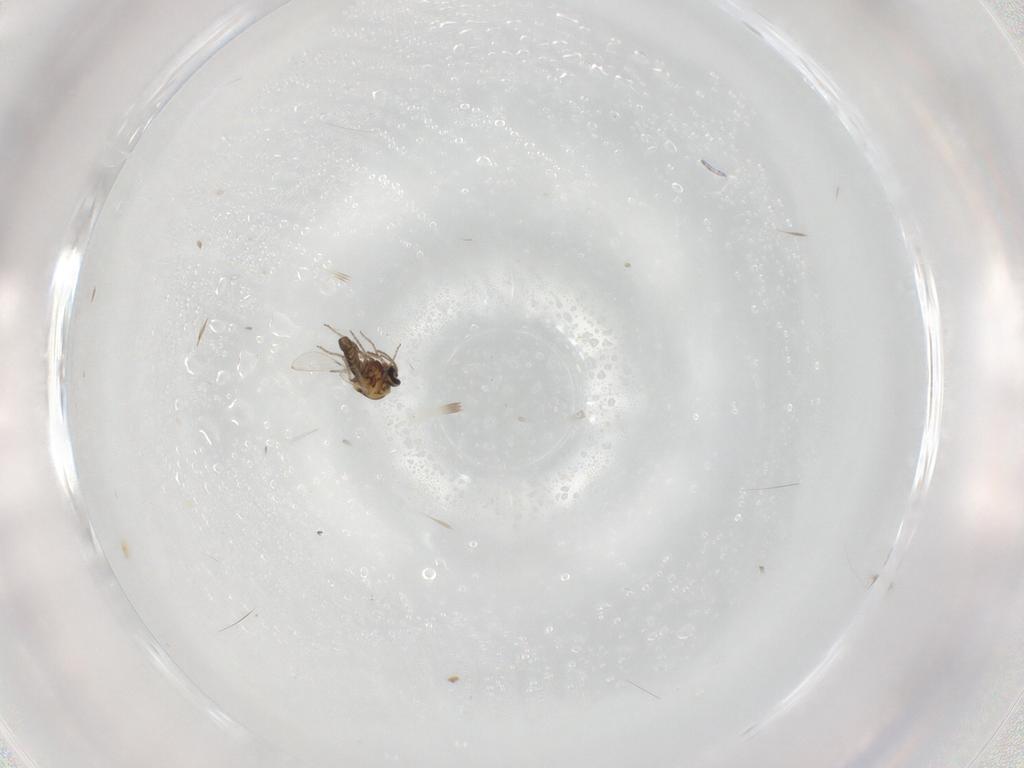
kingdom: Animalia
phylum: Arthropoda
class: Insecta
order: Diptera
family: Ceratopogonidae
